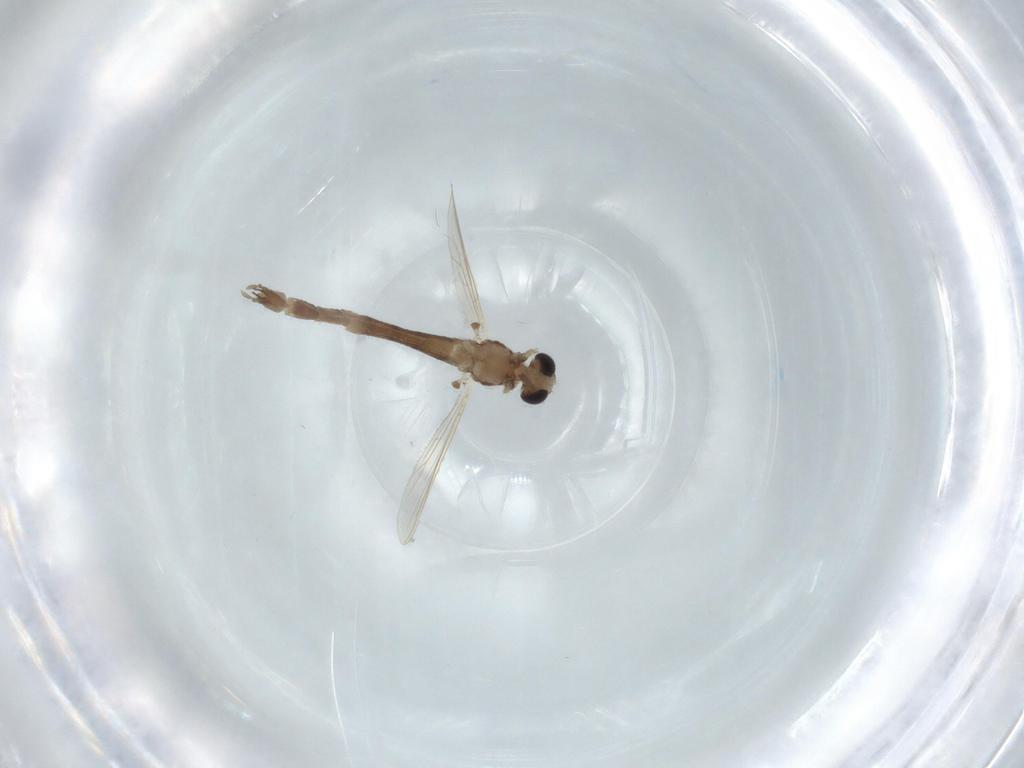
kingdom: Animalia
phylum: Arthropoda
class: Insecta
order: Diptera
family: Chironomidae
